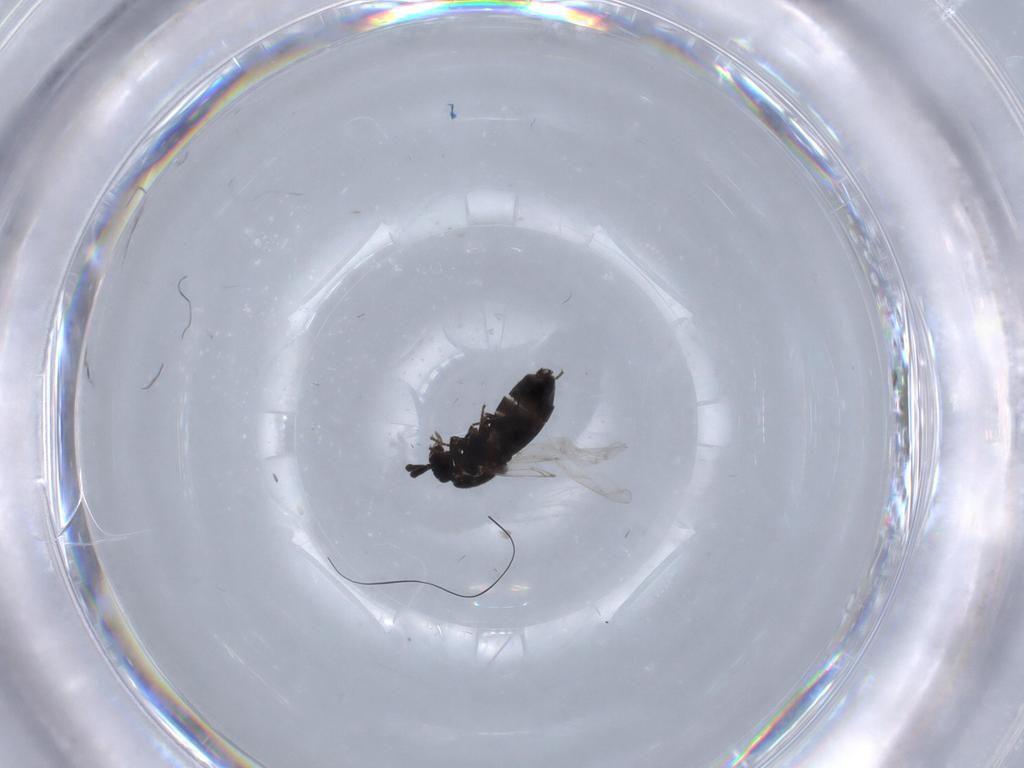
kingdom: Animalia
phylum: Arthropoda
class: Insecta
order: Diptera
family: Scatopsidae
